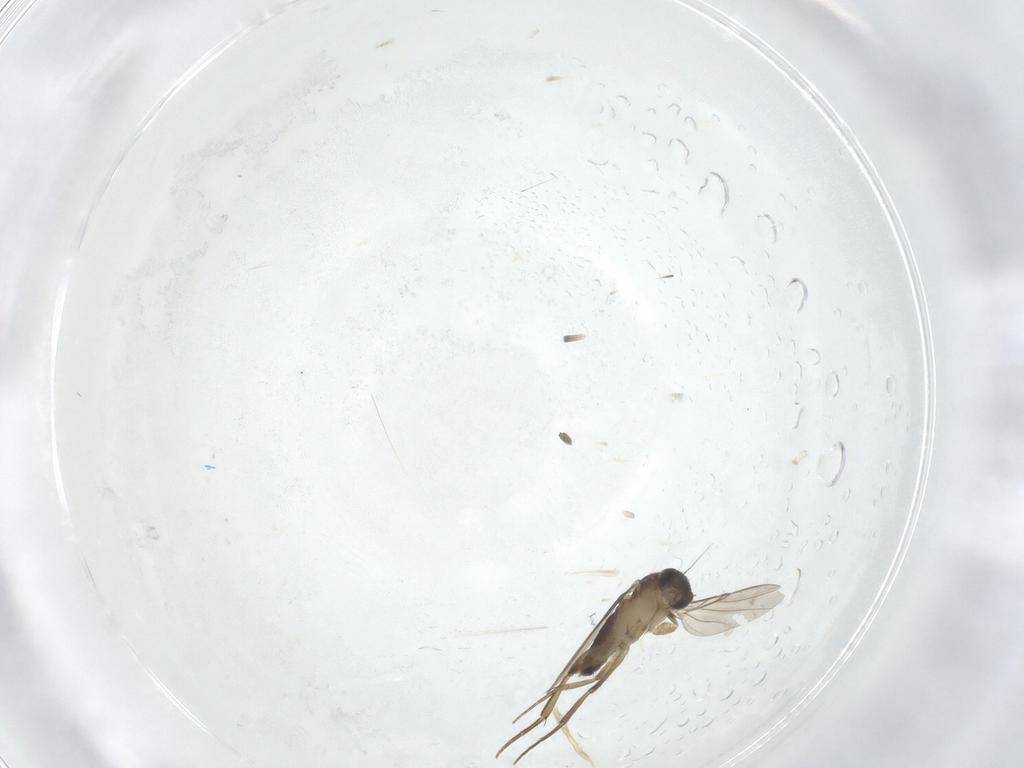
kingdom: Animalia
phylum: Arthropoda
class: Insecta
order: Diptera
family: Phoridae
